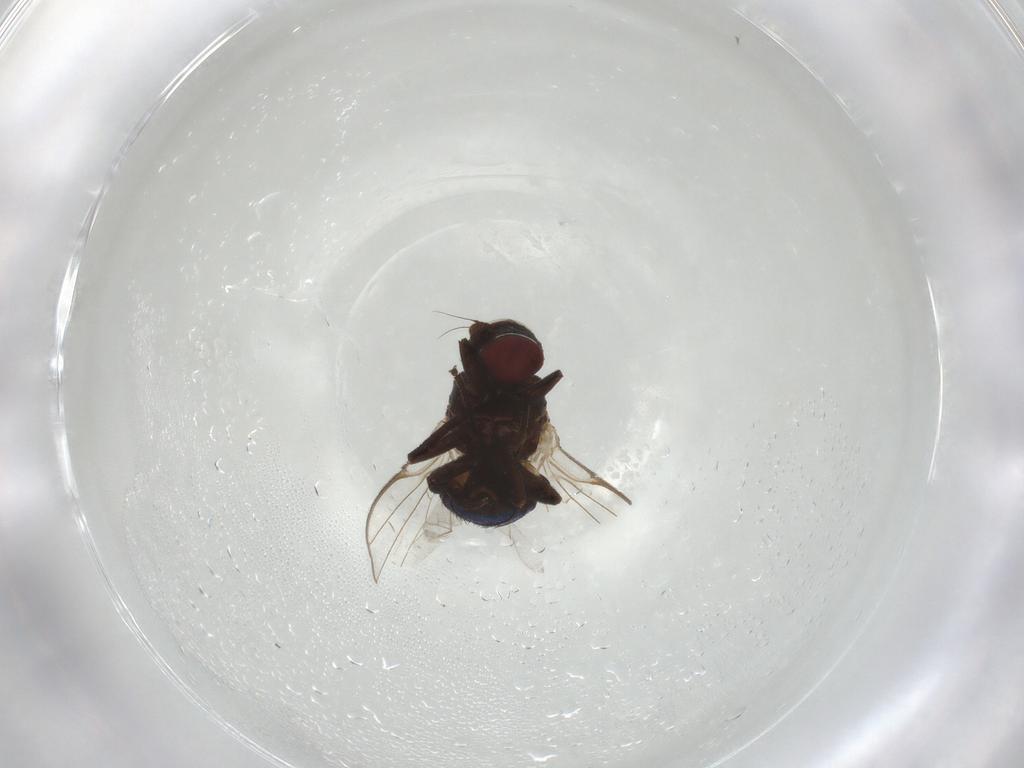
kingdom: Animalia
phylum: Arthropoda
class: Insecta
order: Diptera
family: Agromyzidae
